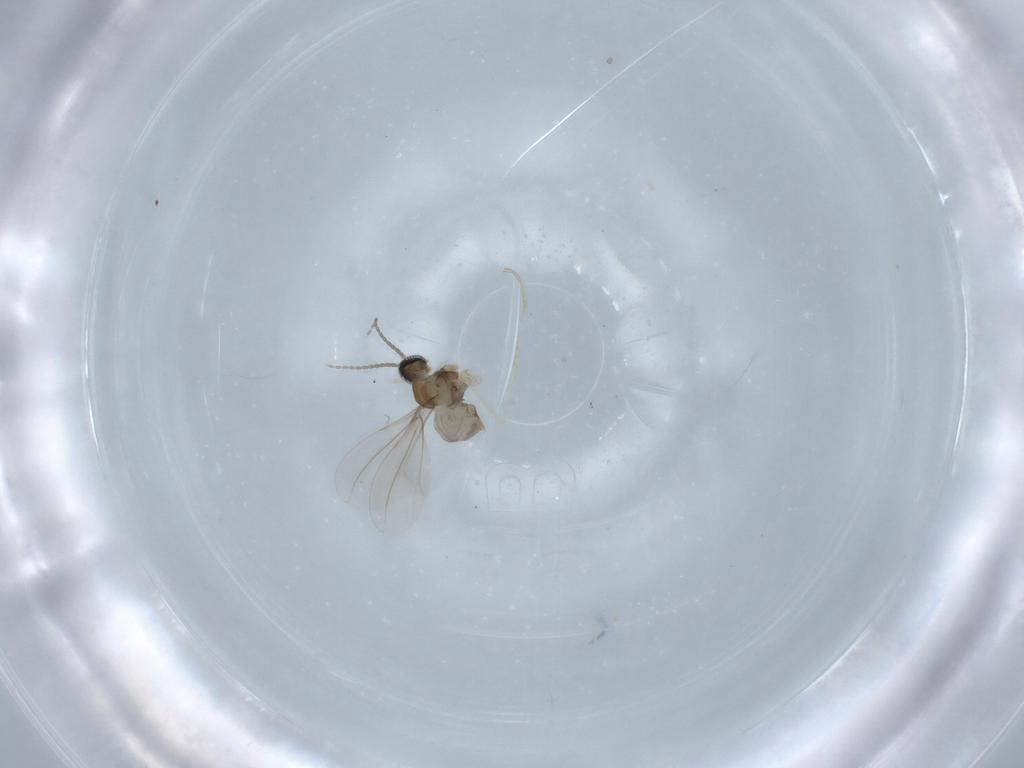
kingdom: Animalia
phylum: Arthropoda
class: Insecta
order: Diptera
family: Cecidomyiidae
